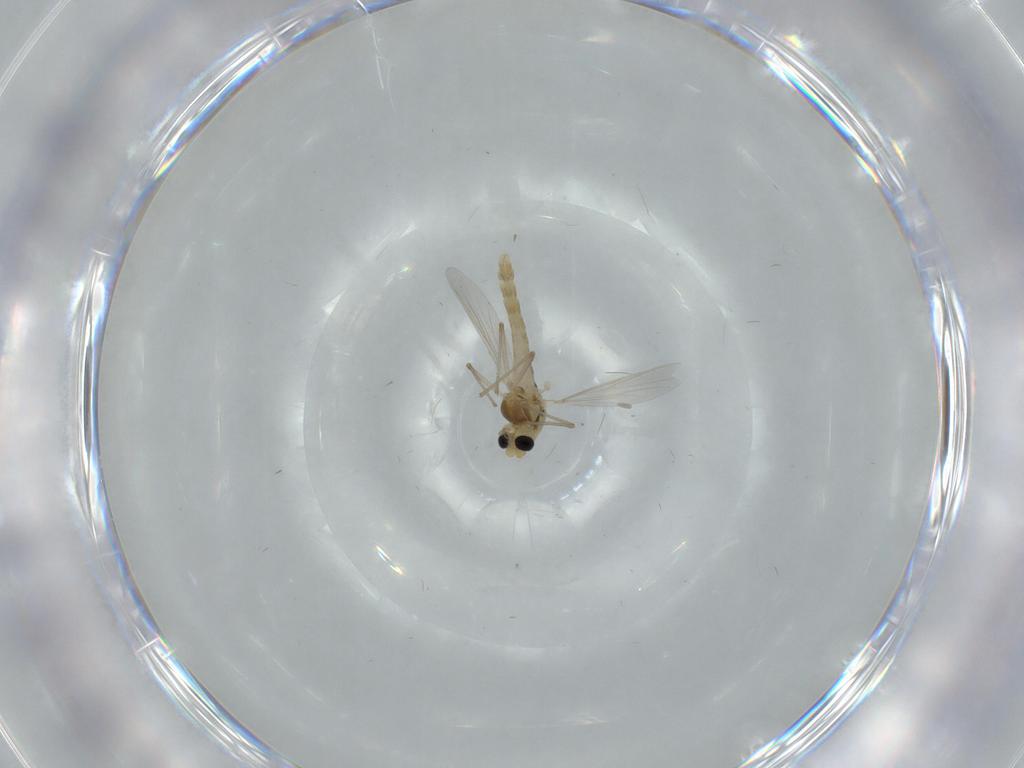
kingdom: Animalia
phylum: Arthropoda
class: Insecta
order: Diptera
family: Chironomidae
